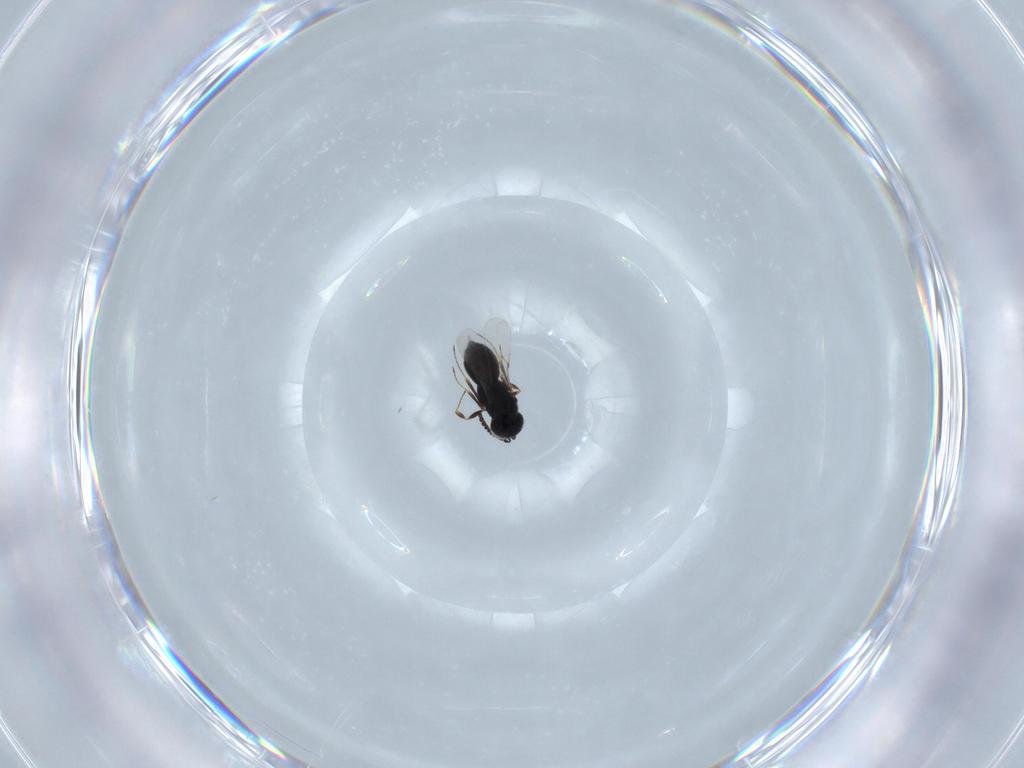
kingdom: Animalia
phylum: Arthropoda
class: Insecta
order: Hymenoptera
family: Scelionidae
